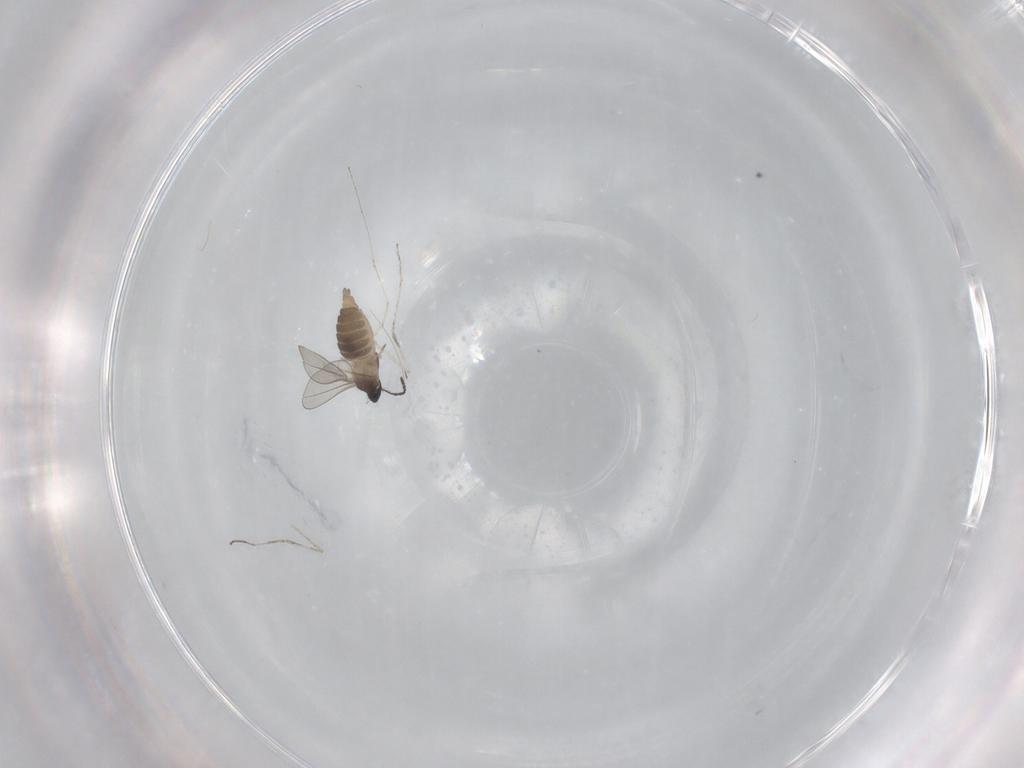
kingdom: Animalia
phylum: Arthropoda
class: Insecta
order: Diptera
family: Cecidomyiidae
